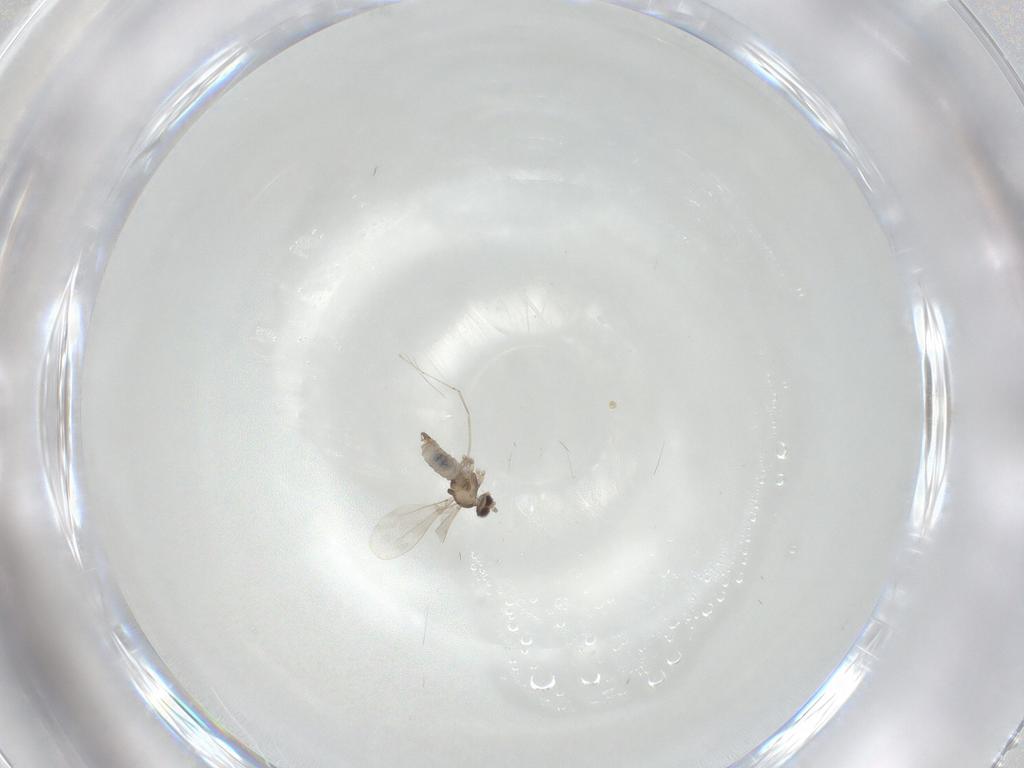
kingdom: Animalia
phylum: Arthropoda
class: Insecta
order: Diptera
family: Cecidomyiidae
